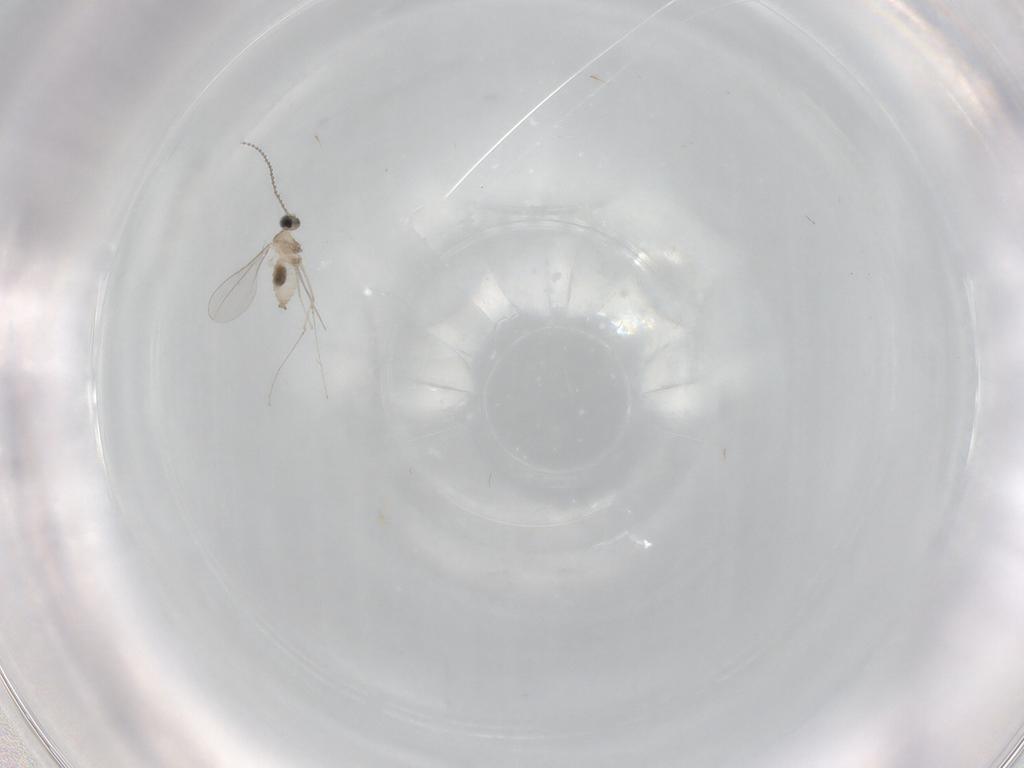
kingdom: Animalia
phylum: Arthropoda
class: Insecta
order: Diptera
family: Cecidomyiidae
